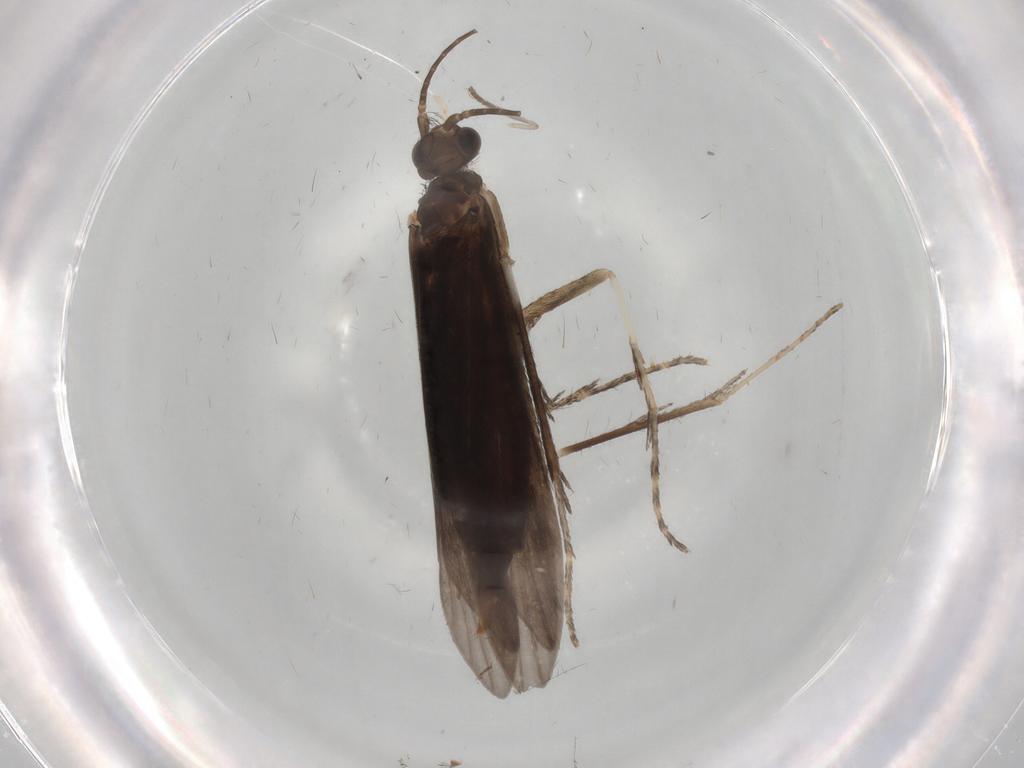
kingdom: Animalia
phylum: Arthropoda
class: Insecta
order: Trichoptera
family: Xiphocentronidae
